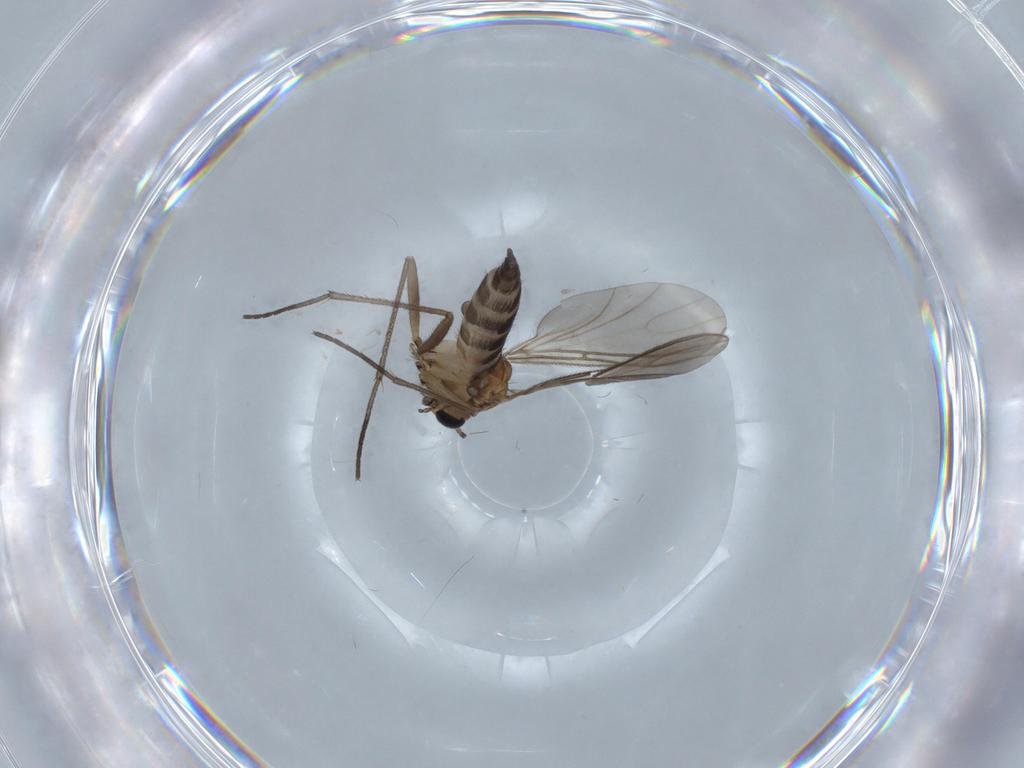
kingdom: Animalia
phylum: Arthropoda
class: Insecta
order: Diptera
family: Sciaridae
